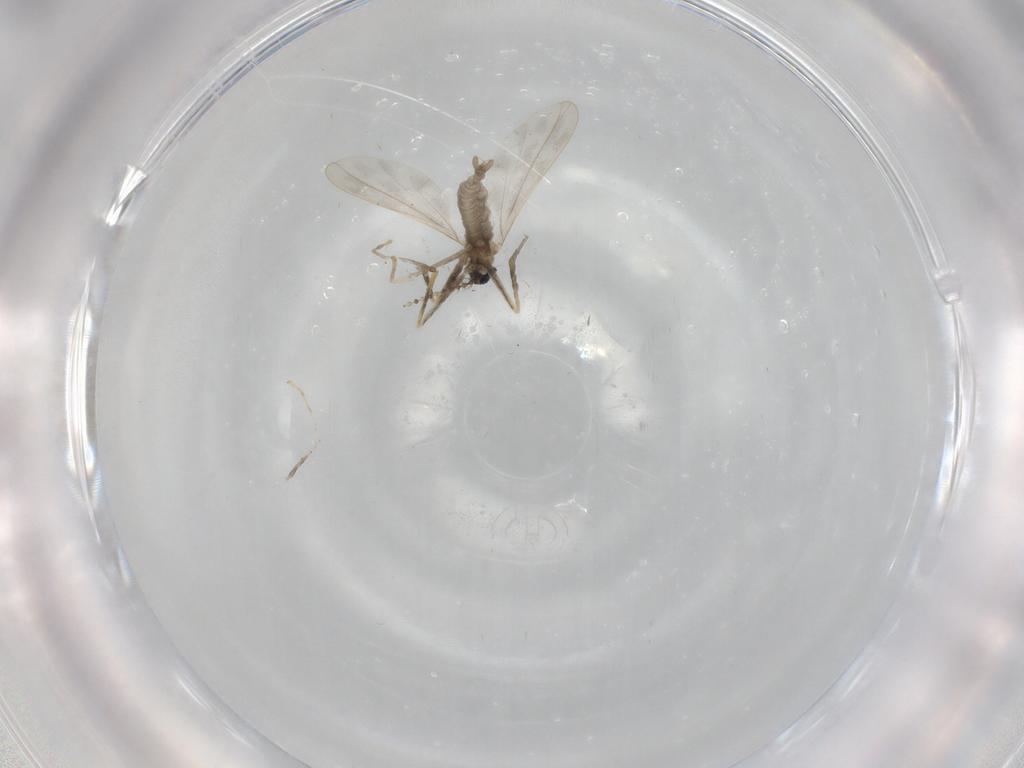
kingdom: Animalia
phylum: Arthropoda
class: Insecta
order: Diptera
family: Cecidomyiidae
